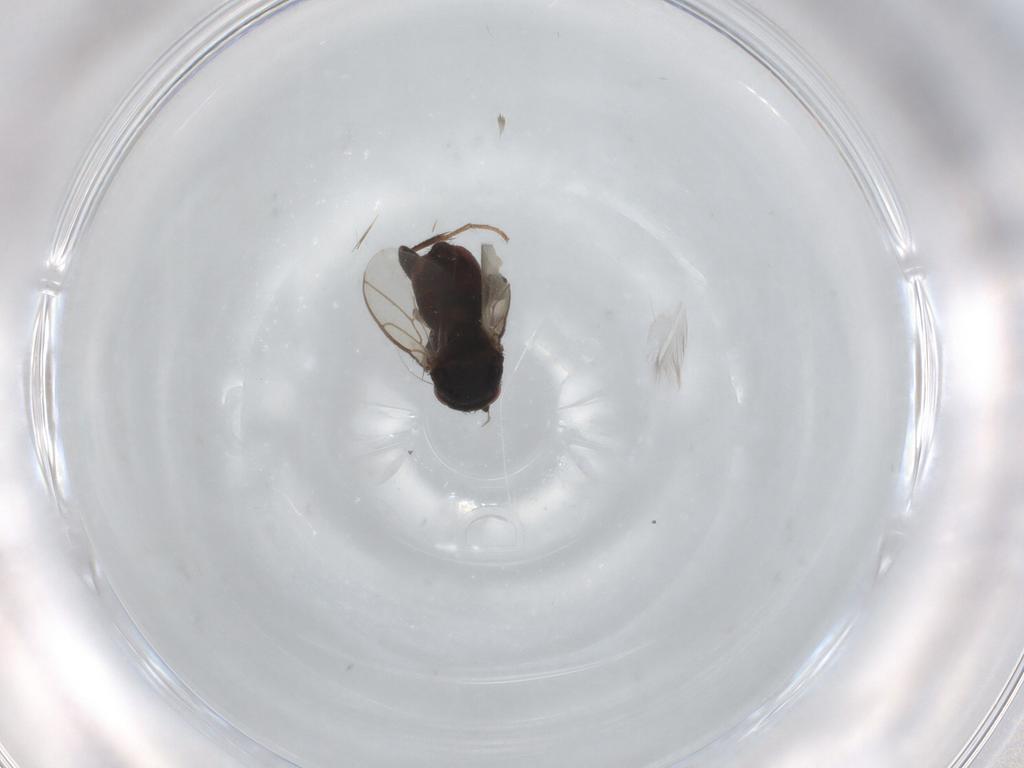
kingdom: Animalia
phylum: Arthropoda
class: Insecta
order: Diptera
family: Sphaeroceridae
